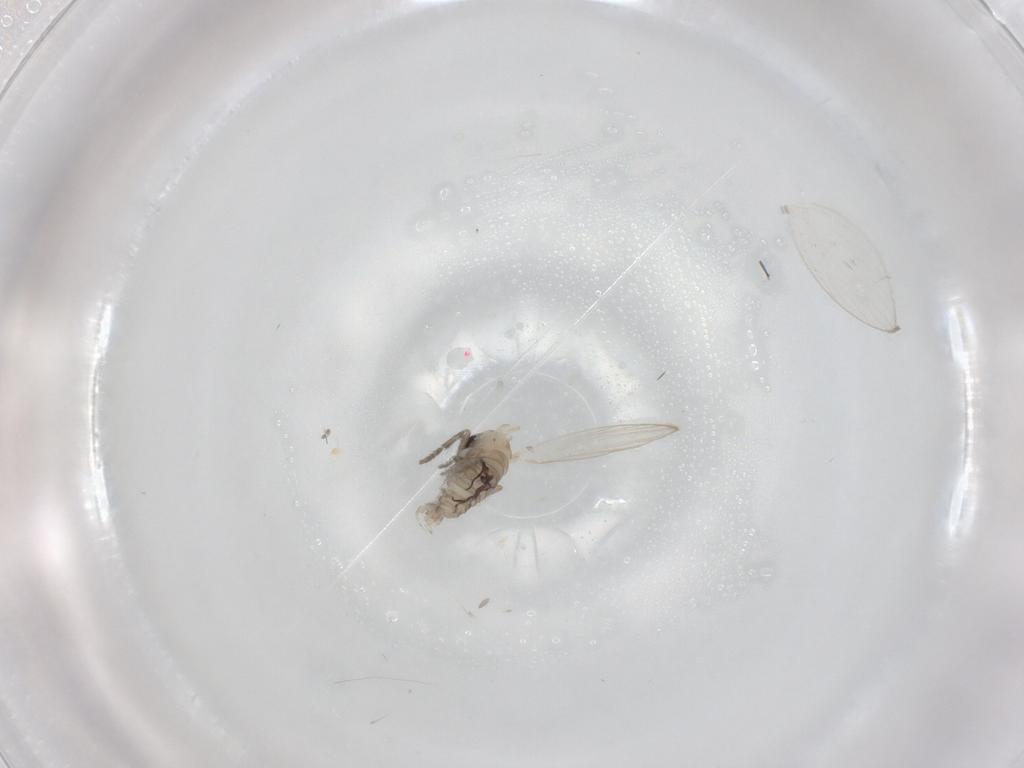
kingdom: Animalia
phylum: Arthropoda
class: Insecta
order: Diptera
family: Psychodidae
